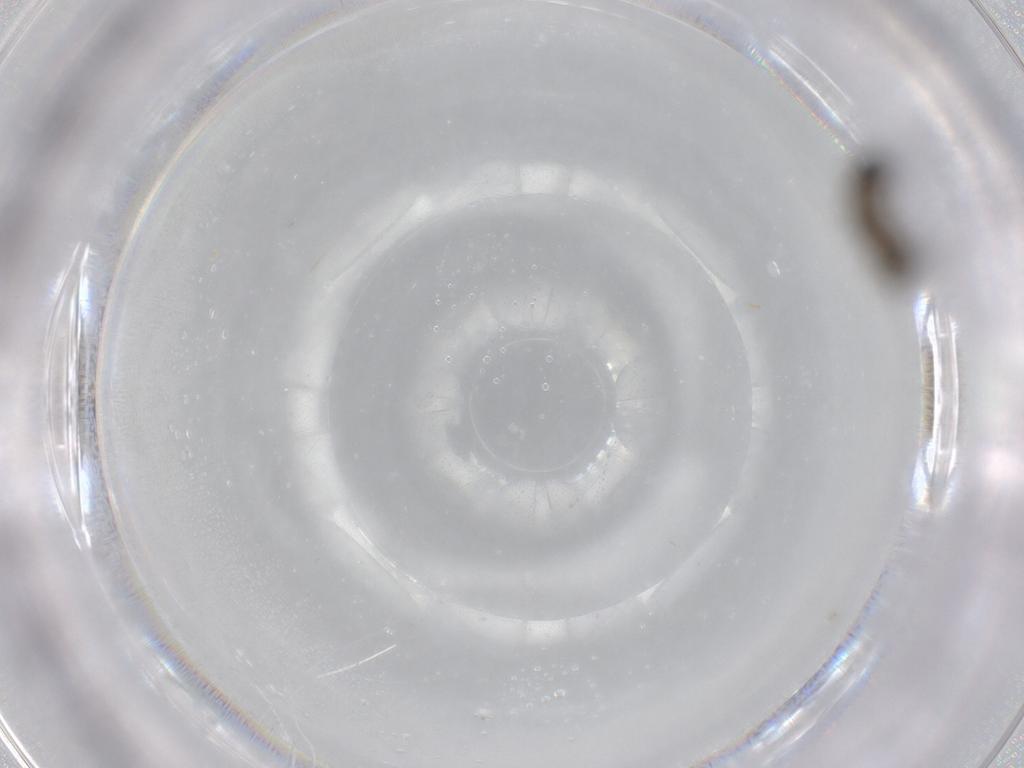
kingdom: Animalia
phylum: Arthropoda
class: Insecta
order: Diptera
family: Phoridae
